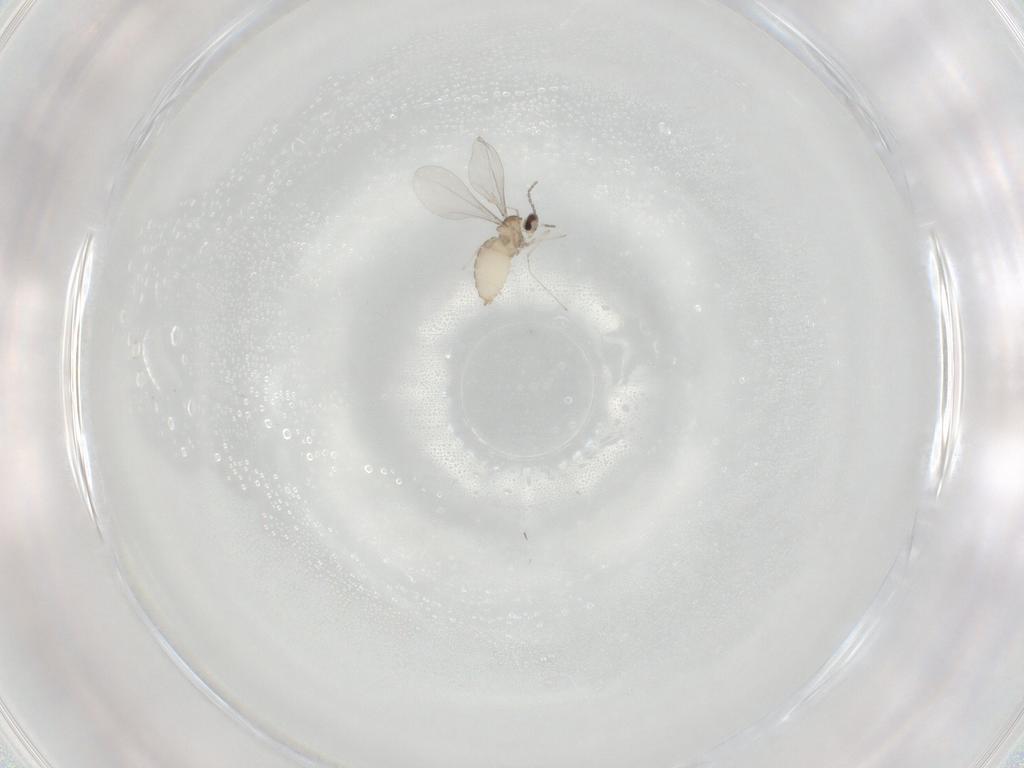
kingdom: Animalia
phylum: Arthropoda
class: Insecta
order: Diptera
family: Cecidomyiidae
